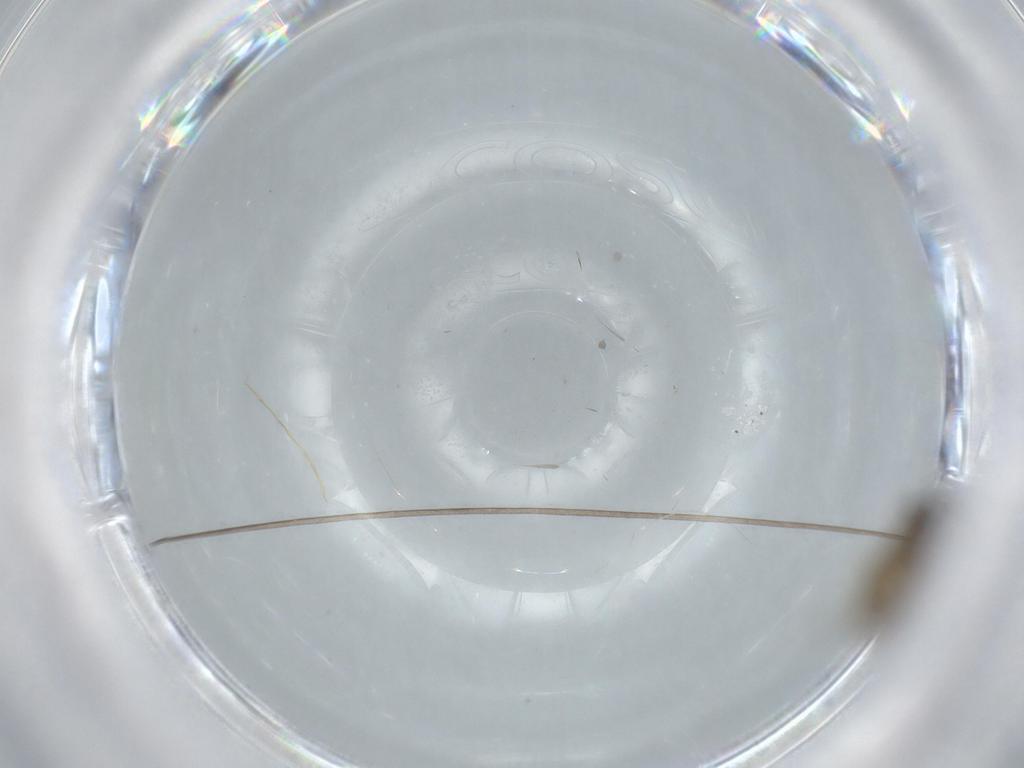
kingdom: Animalia
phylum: Arthropoda
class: Insecta
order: Diptera
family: Cecidomyiidae
